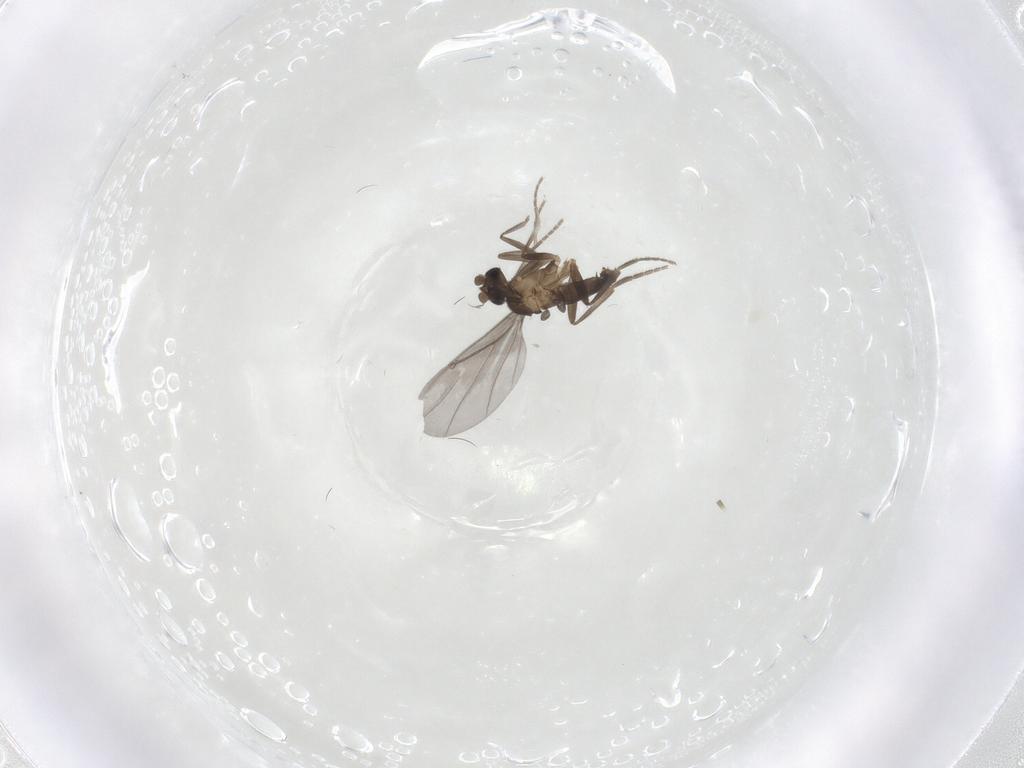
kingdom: Animalia
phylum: Arthropoda
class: Insecta
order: Diptera
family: Phoridae
